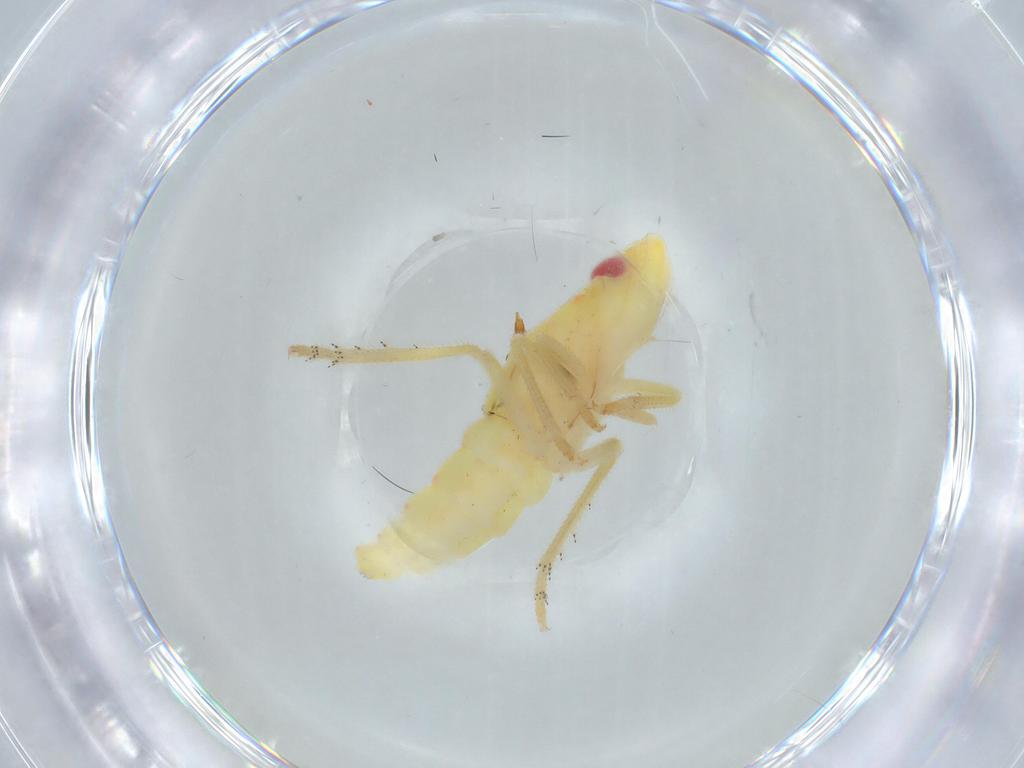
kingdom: Animalia
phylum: Arthropoda
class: Insecta
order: Hemiptera
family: Tropiduchidae
